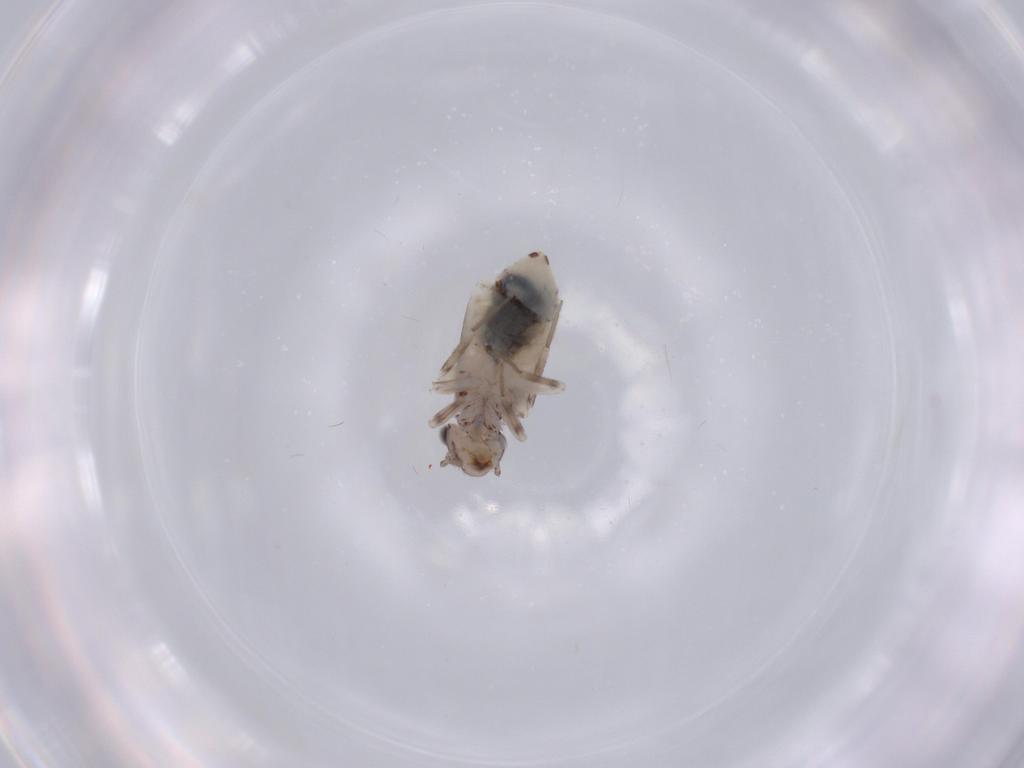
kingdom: Animalia
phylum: Arthropoda
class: Insecta
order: Psocodea
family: Lepidopsocidae
